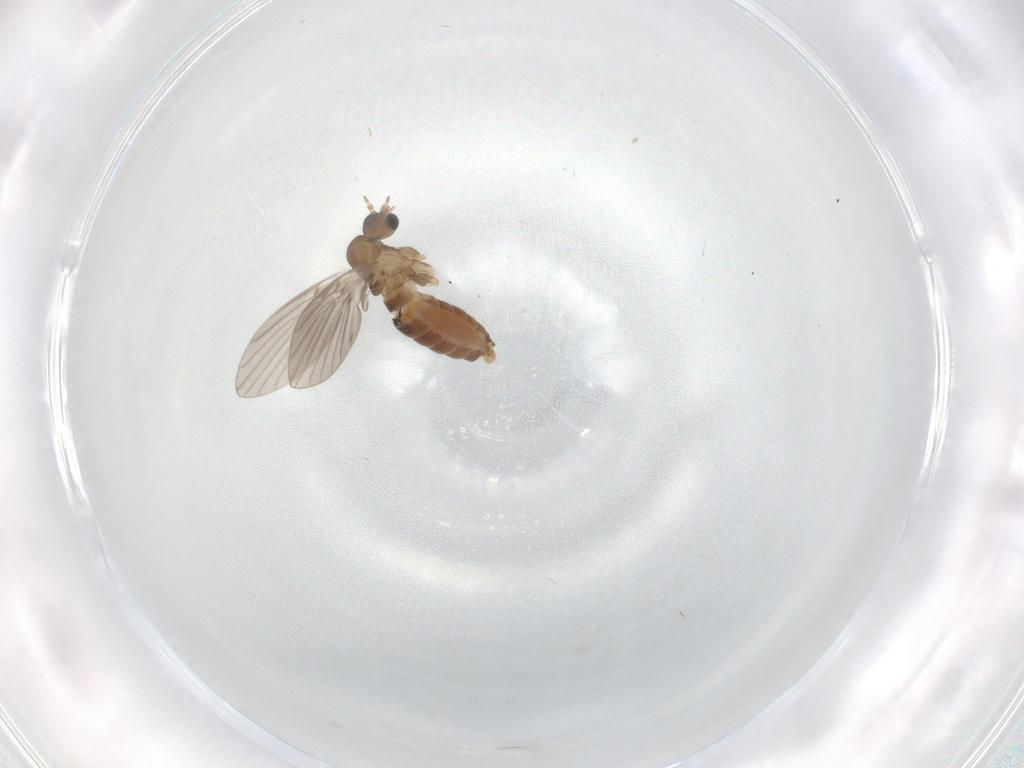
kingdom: Animalia
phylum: Arthropoda
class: Insecta
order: Diptera
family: Cecidomyiidae
